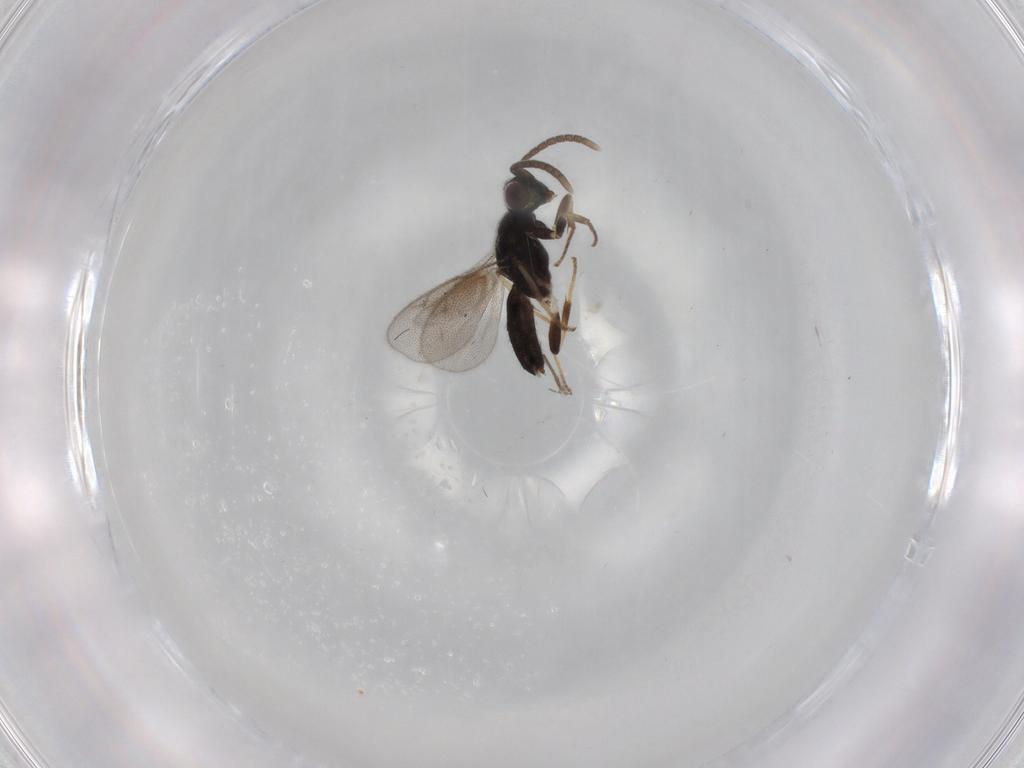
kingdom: Animalia
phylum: Arthropoda
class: Insecta
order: Hymenoptera
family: Eupelmidae
